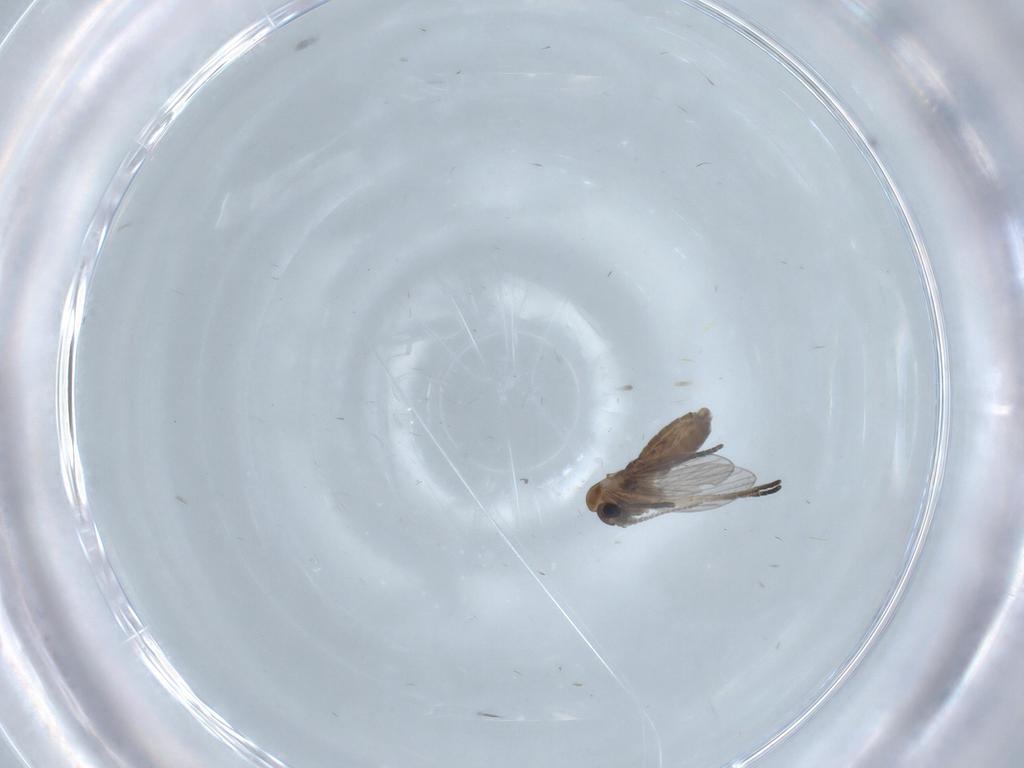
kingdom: Animalia
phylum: Arthropoda
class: Insecta
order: Diptera
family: Psychodidae
